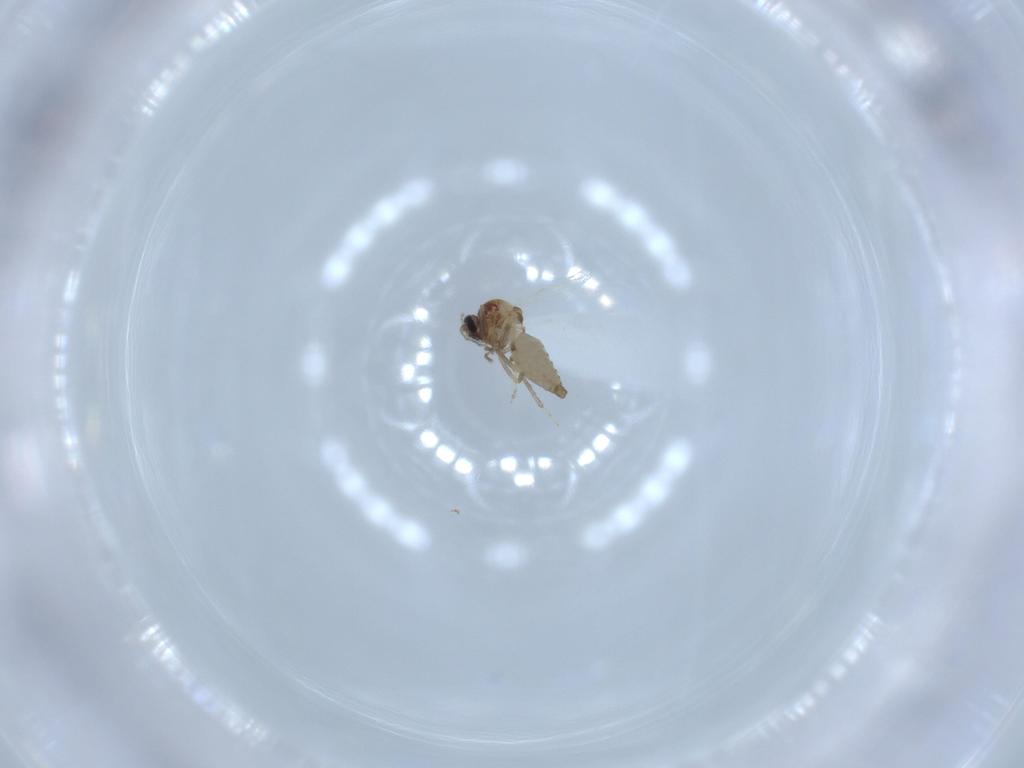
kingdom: Animalia
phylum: Arthropoda
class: Insecta
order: Diptera
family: Ceratopogonidae
